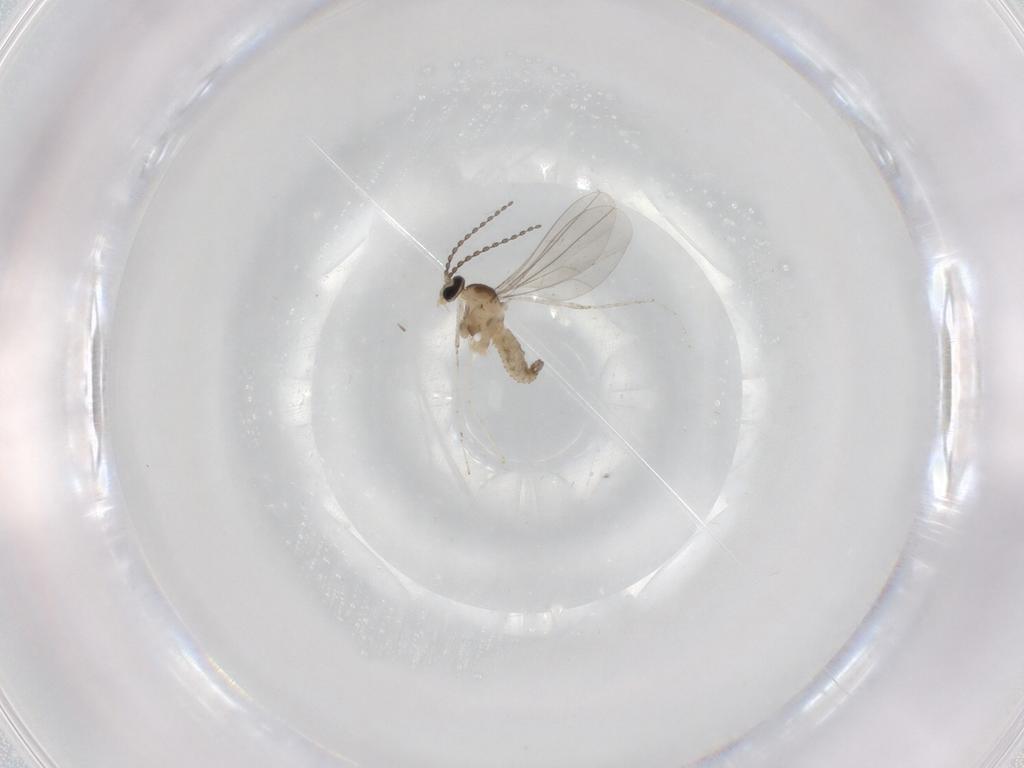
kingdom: Animalia
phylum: Arthropoda
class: Insecta
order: Diptera
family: Cecidomyiidae
